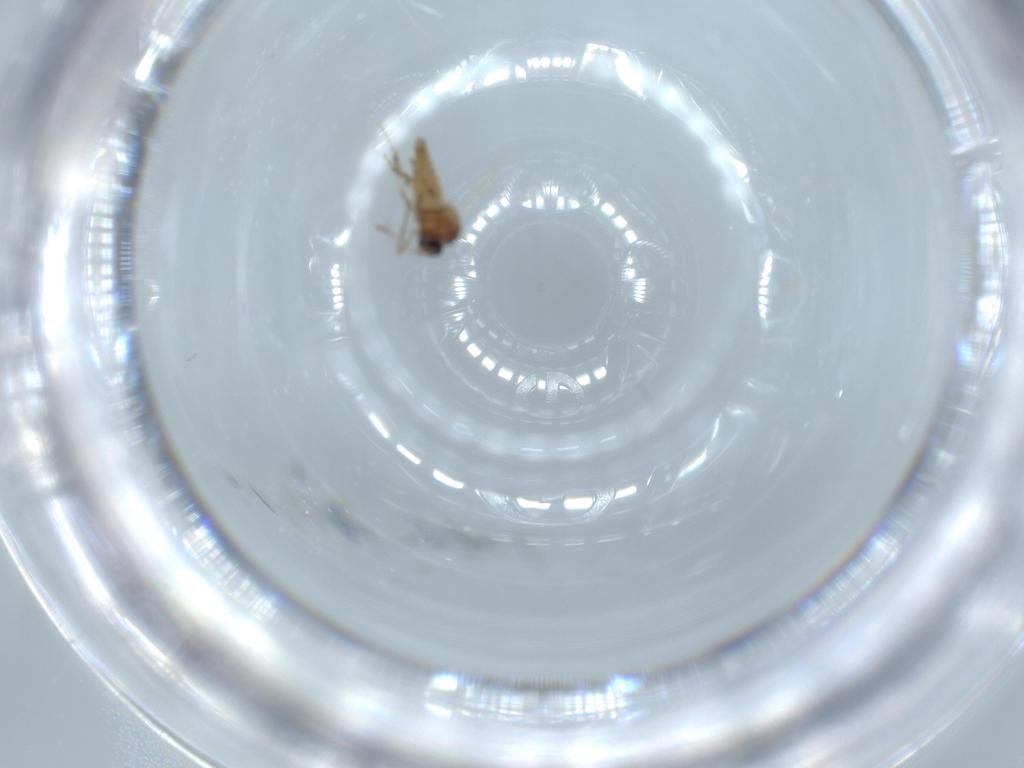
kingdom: Animalia
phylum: Arthropoda
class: Insecta
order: Diptera
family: Ceratopogonidae
